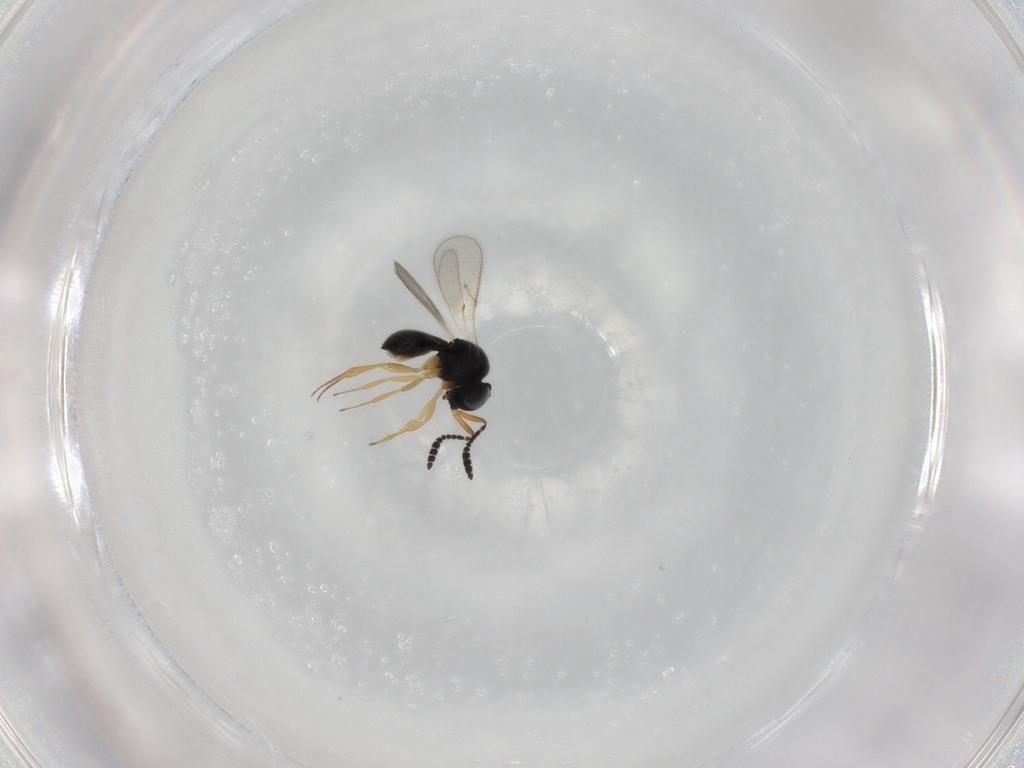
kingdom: Animalia
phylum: Arthropoda
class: Insecta
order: Hymenoptera
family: Scelionidae
